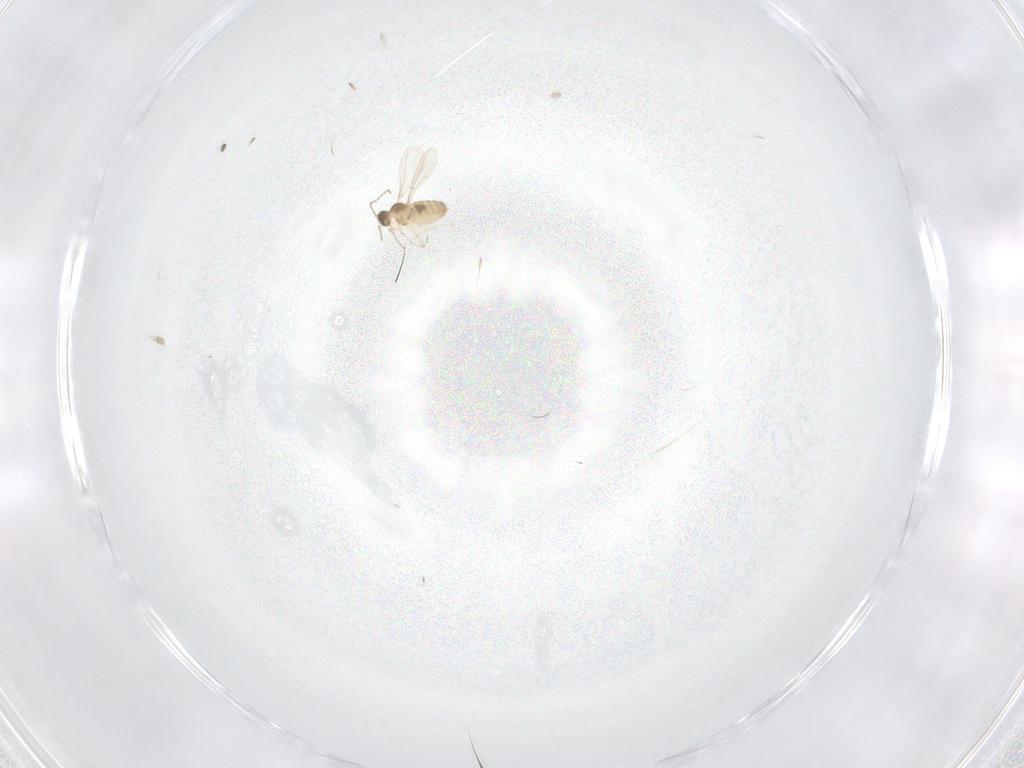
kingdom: Animalia
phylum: Arthropoda
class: Insecta
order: Diptera
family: Cecidomyiidae
